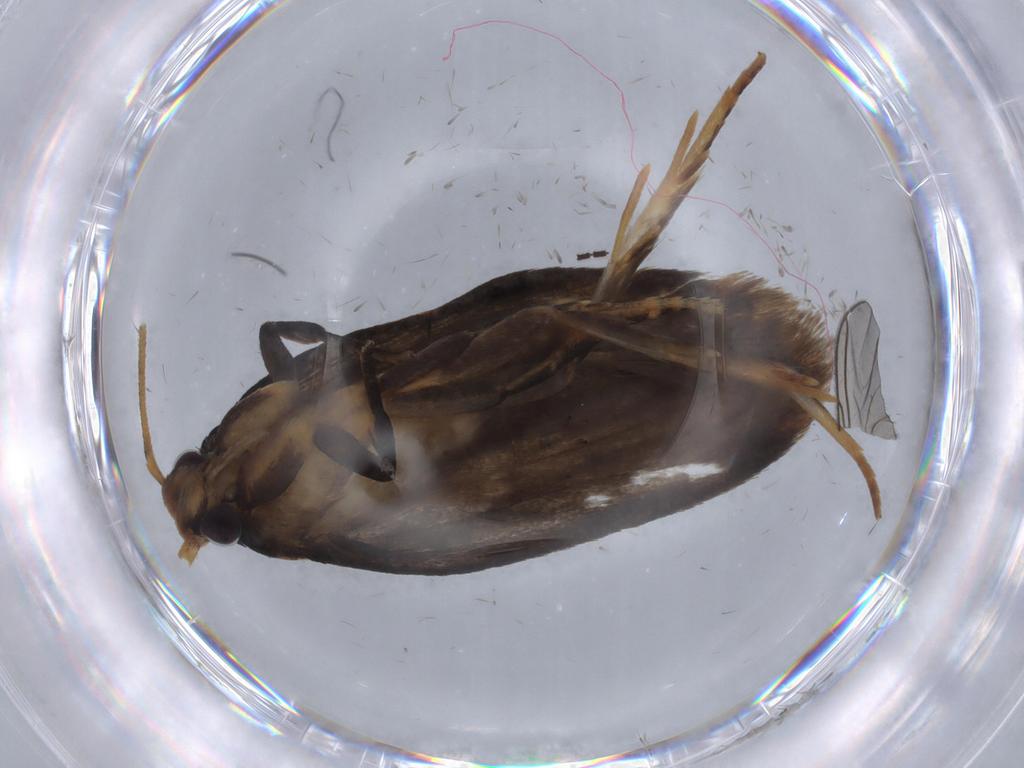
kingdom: Animalia
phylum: Arthropoda
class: Insecta
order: Lepidoptera
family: Oecophoridae
